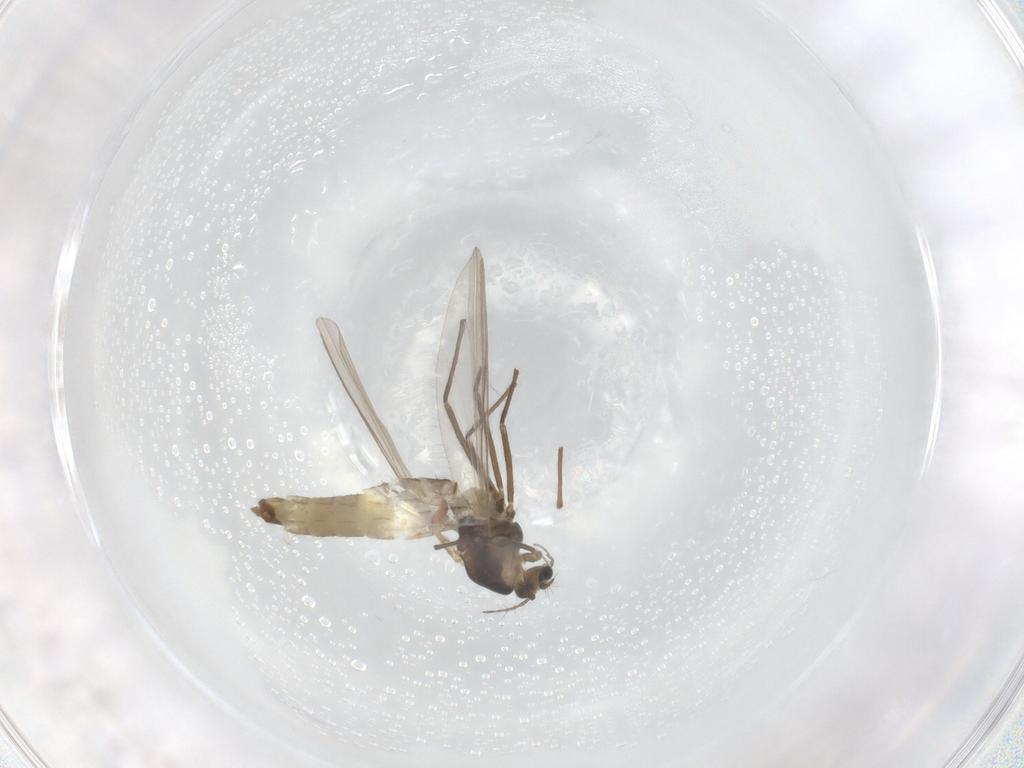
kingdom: Animalia
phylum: Arthropoda
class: Insecta
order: Diptera
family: Chironomidae
